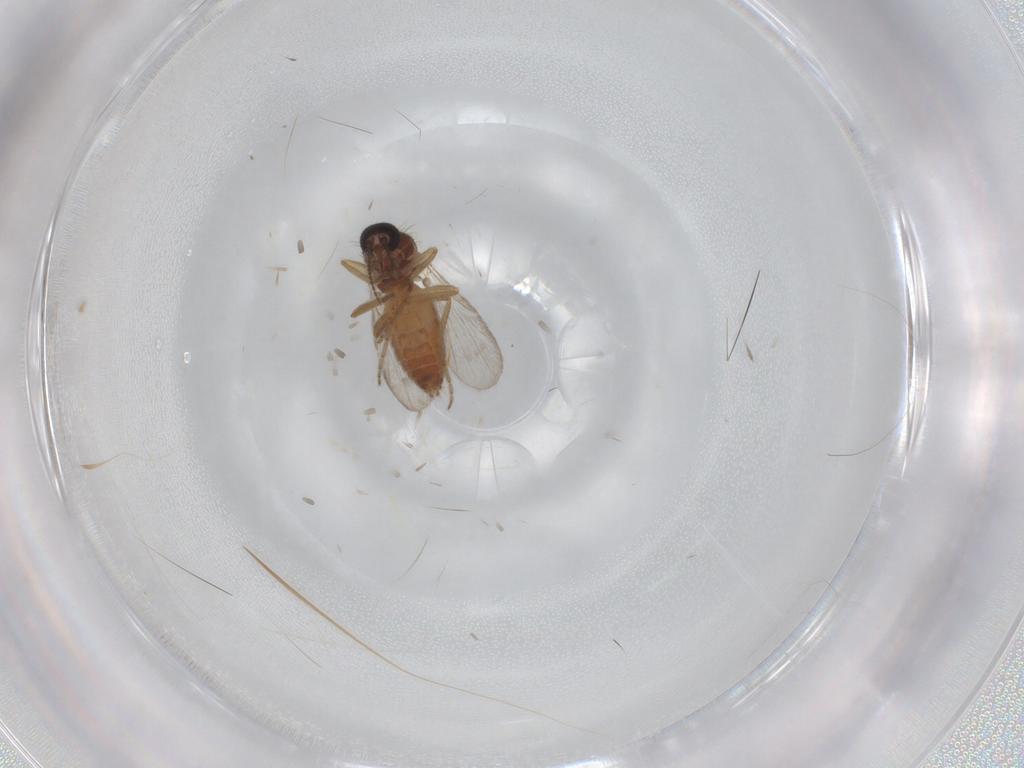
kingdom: Animalia
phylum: Arthropoda
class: Insecta
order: Diptera
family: Ceratopogonidae
